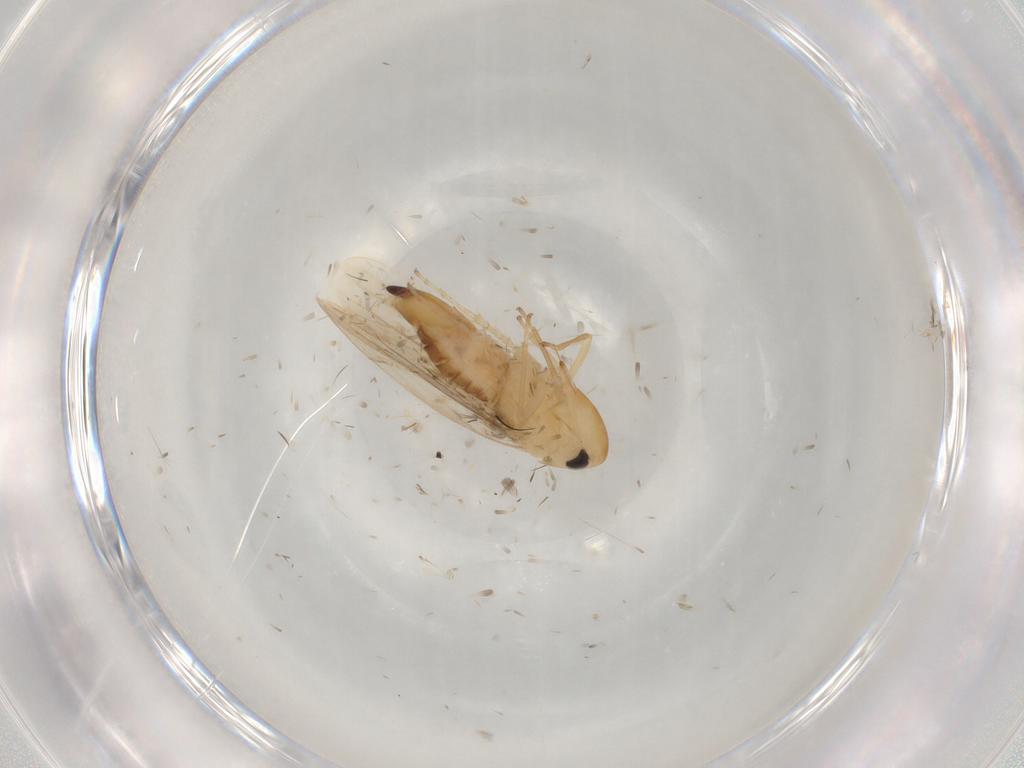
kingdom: Animalia
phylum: Arthropoda
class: Insecta
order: Hemiptera
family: Cicadellidae
